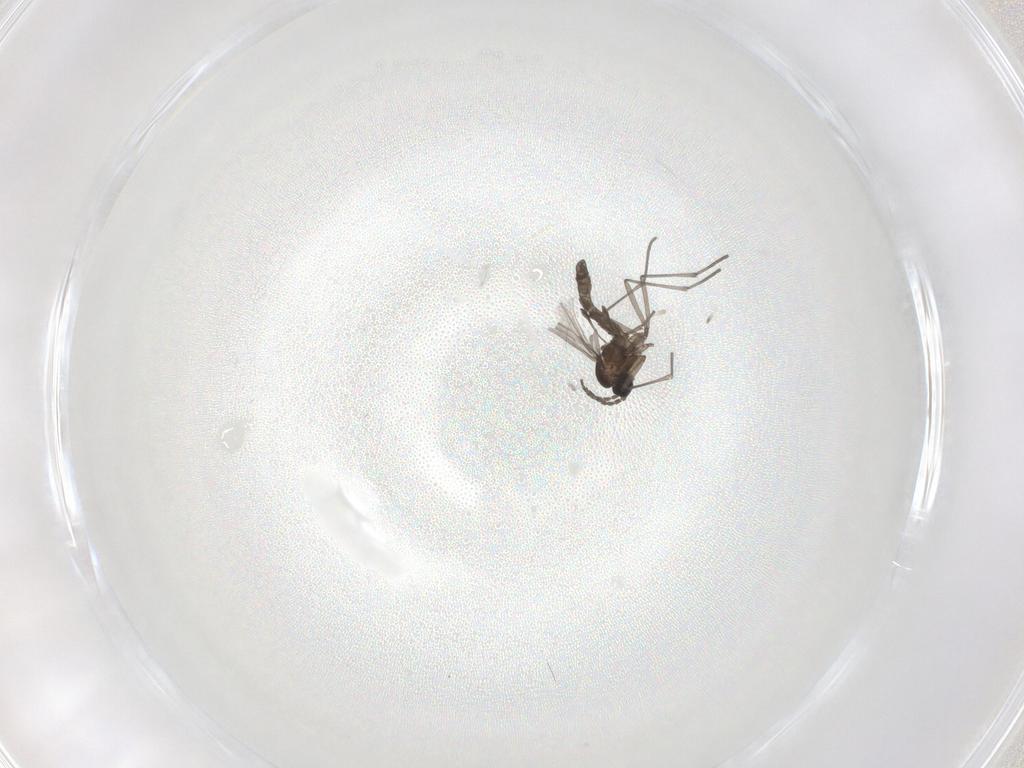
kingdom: Animalia
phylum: Arthropoda
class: Insecta
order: Diptera
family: Sciaridae
